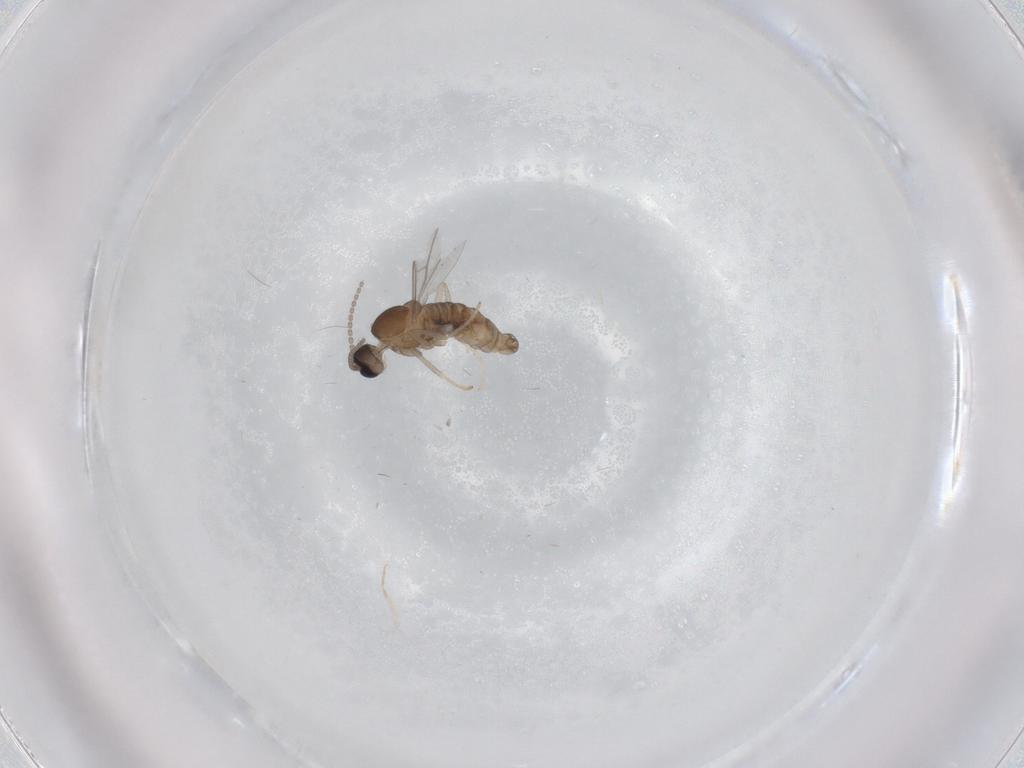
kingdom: Animalia
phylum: Arthropoda
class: Insecta
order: Diptera
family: Cecidomyiidae
